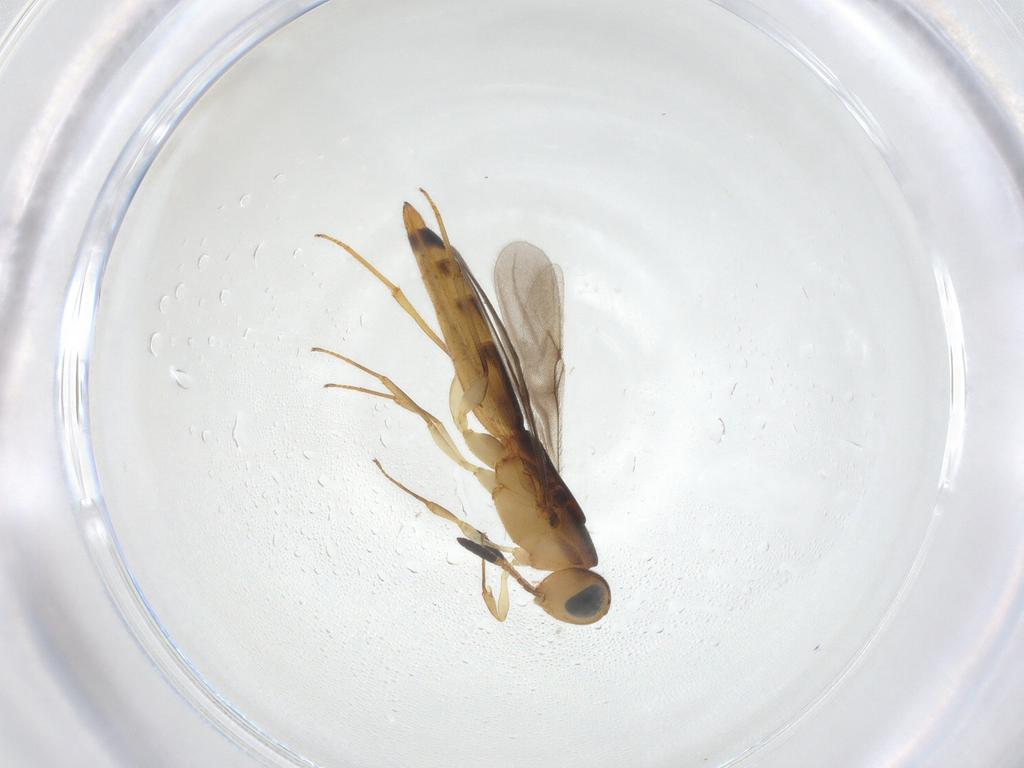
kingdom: Animalia
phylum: Arthropoda
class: Insecta
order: Hymenoptera
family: Scelionidae
